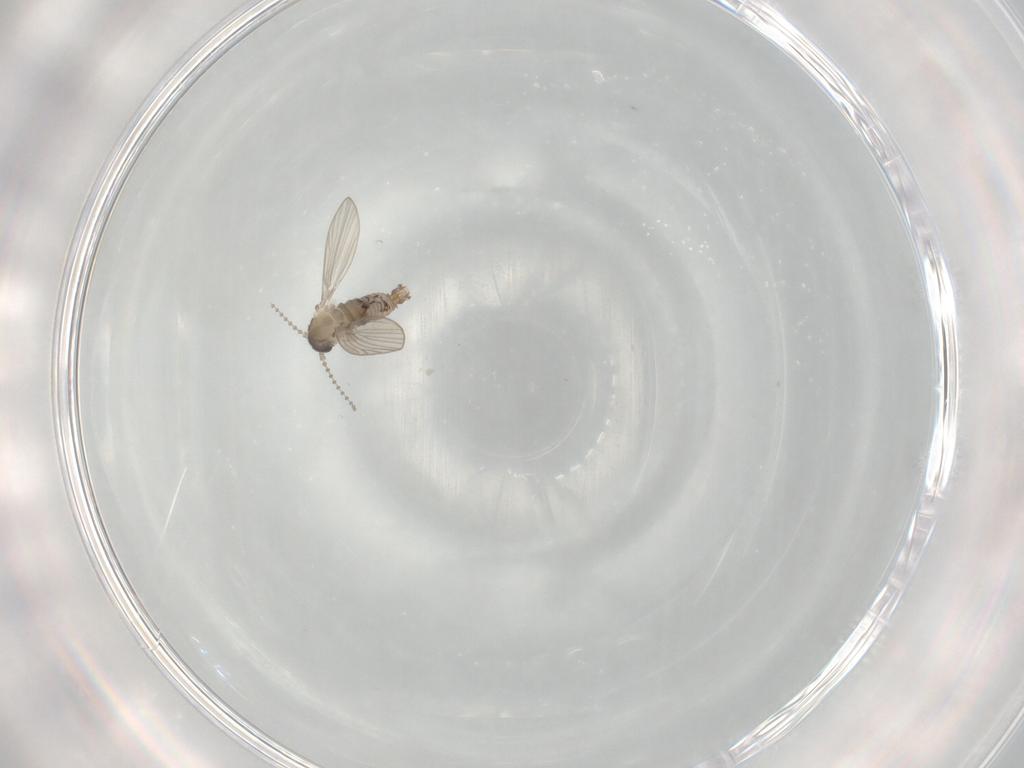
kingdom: Animalia
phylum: Arthropoda
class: Insecta
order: Diptera
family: Psychodidae
